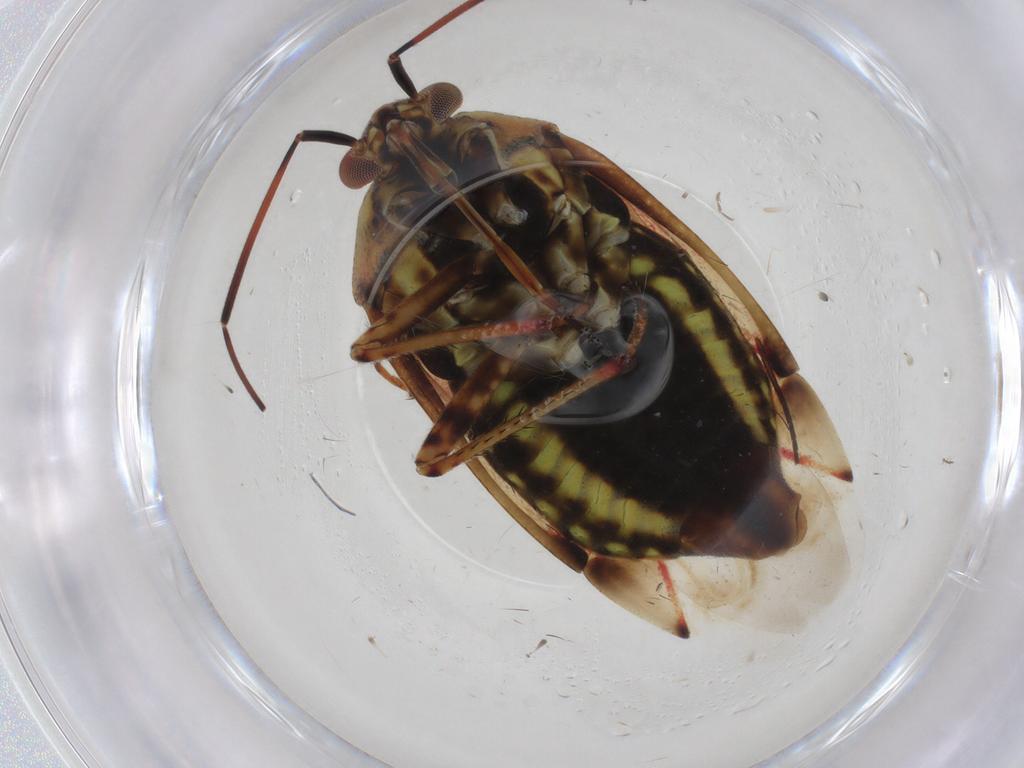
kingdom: Animalia
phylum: Arthropoda
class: Insecta
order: Hemiptera
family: Miridae
